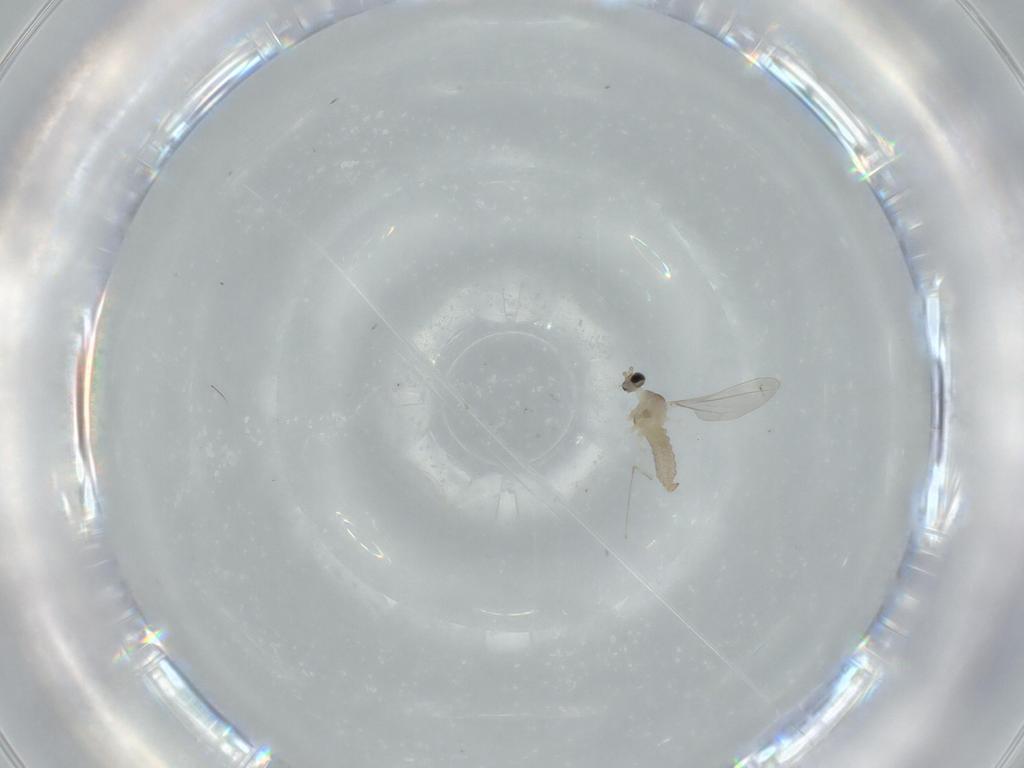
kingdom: Animalia
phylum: Arthropoda
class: Insecta
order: Diptera
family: Cecidomyiidae
